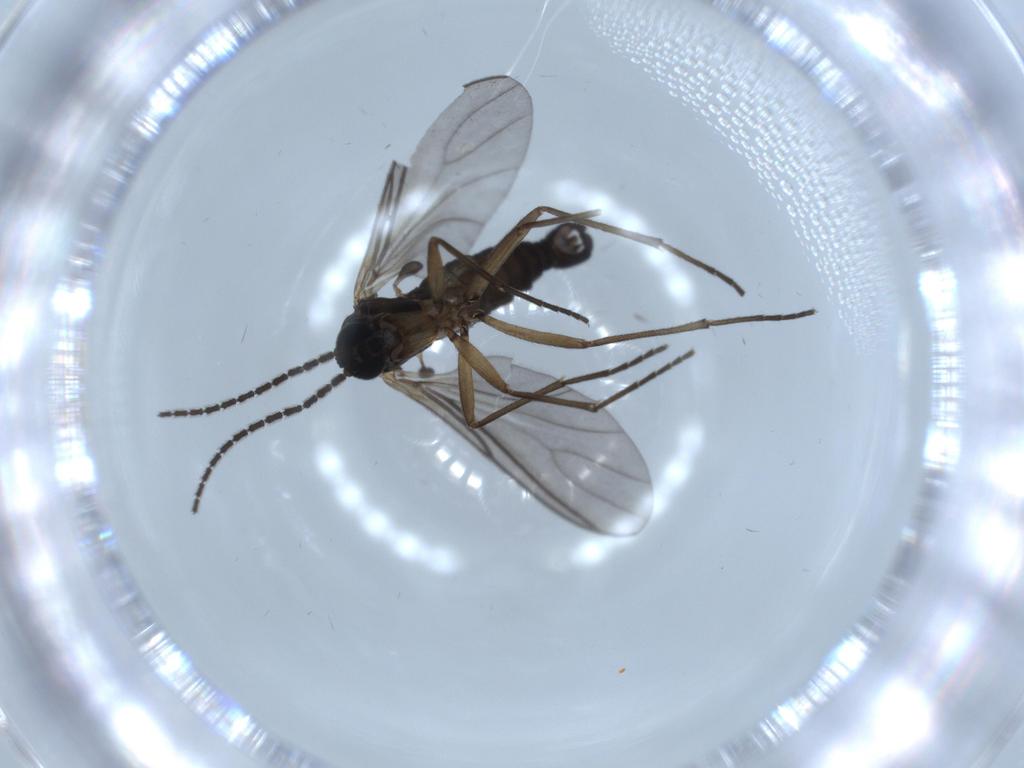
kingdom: Animalia
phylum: Arthropoda
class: Insecta
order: Diptera
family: Sciaridae
